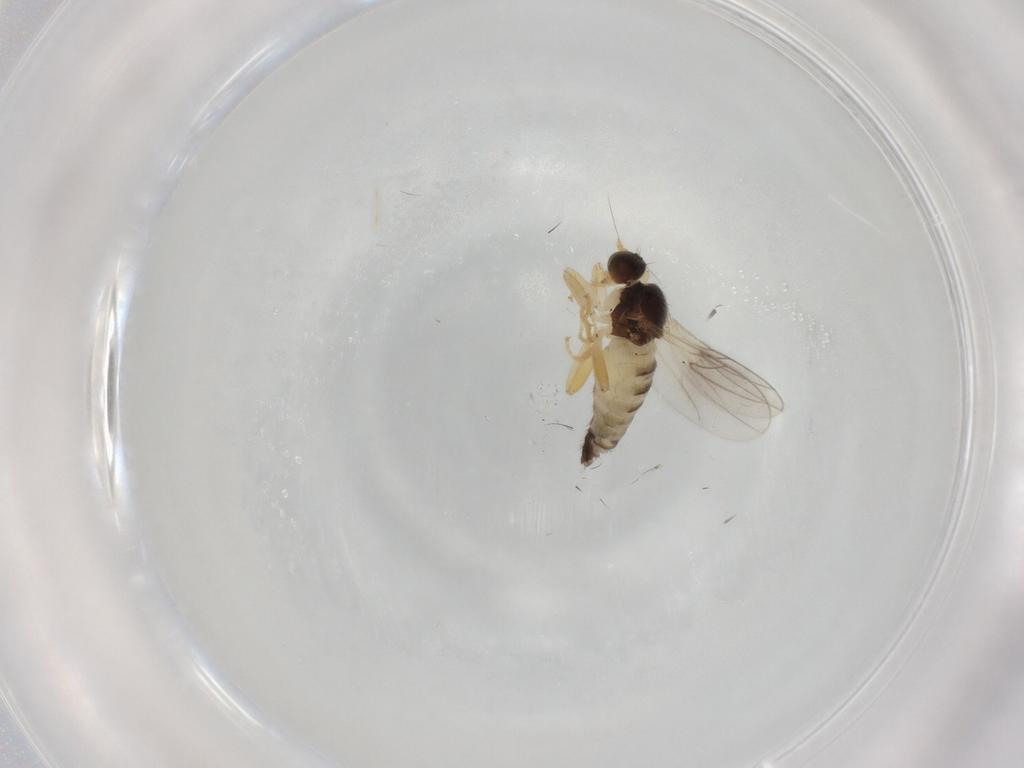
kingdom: Animalia
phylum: Arthropoda
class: Insecta
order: Diptera
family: Hybotidae
